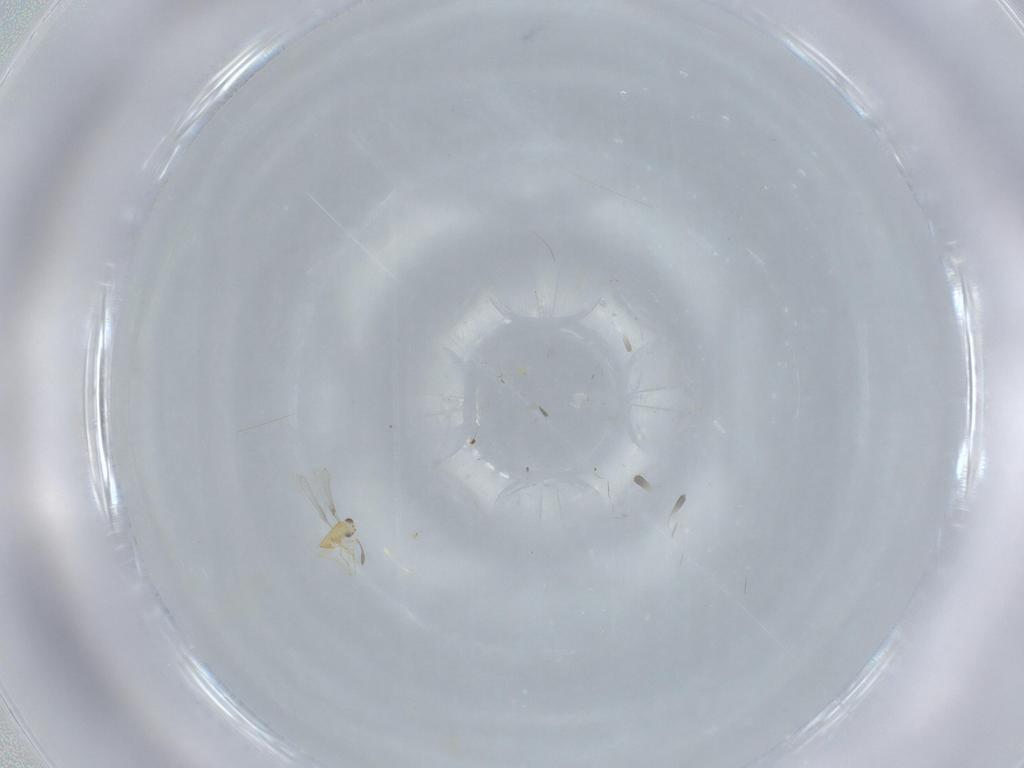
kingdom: Animalia
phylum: Arthropoda
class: Insecta
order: Hymenoptera
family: Mymaridae
